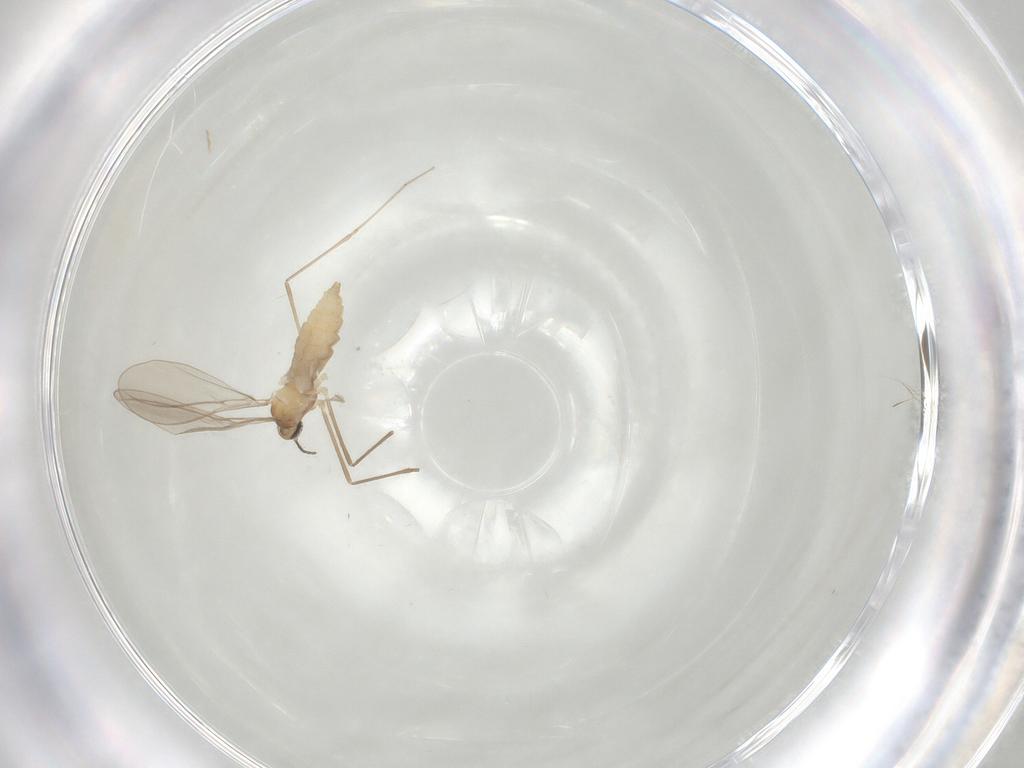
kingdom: Animalia
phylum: Arthropoda
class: Insecta
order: Diptera
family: Cecidomyiidae
